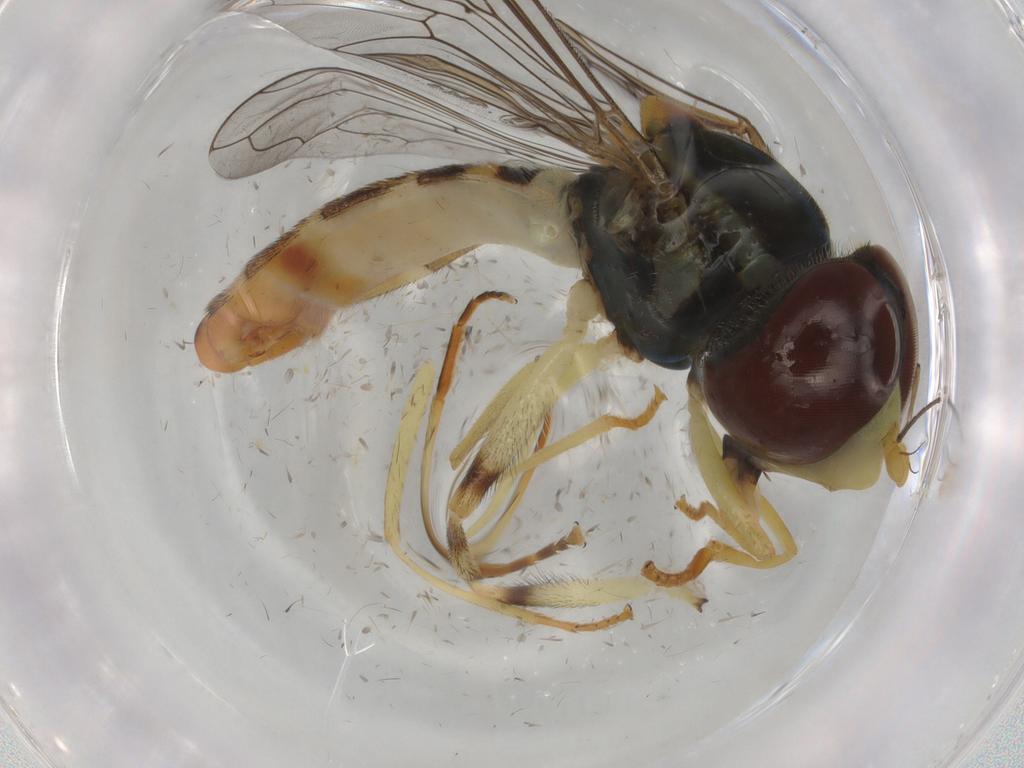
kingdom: Animalia
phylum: Arthropoda
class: Insecta
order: Diptera
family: Syrphidae
